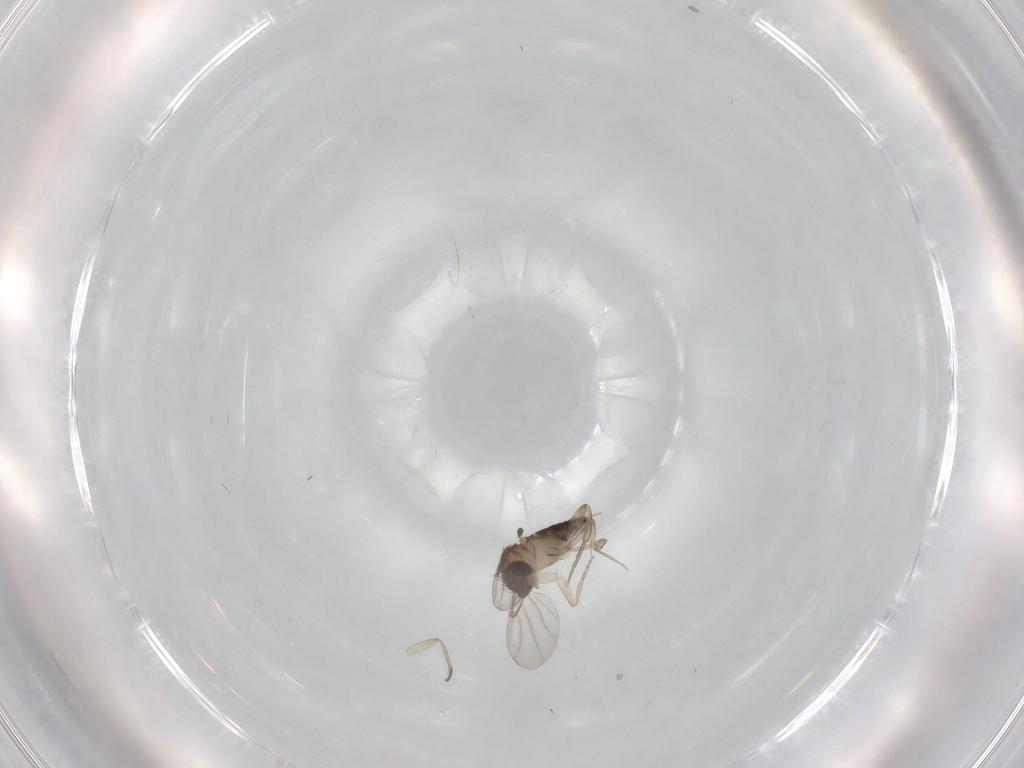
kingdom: Animalia
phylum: Arthropoda
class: Insecta
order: Diptera
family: Phoridae
